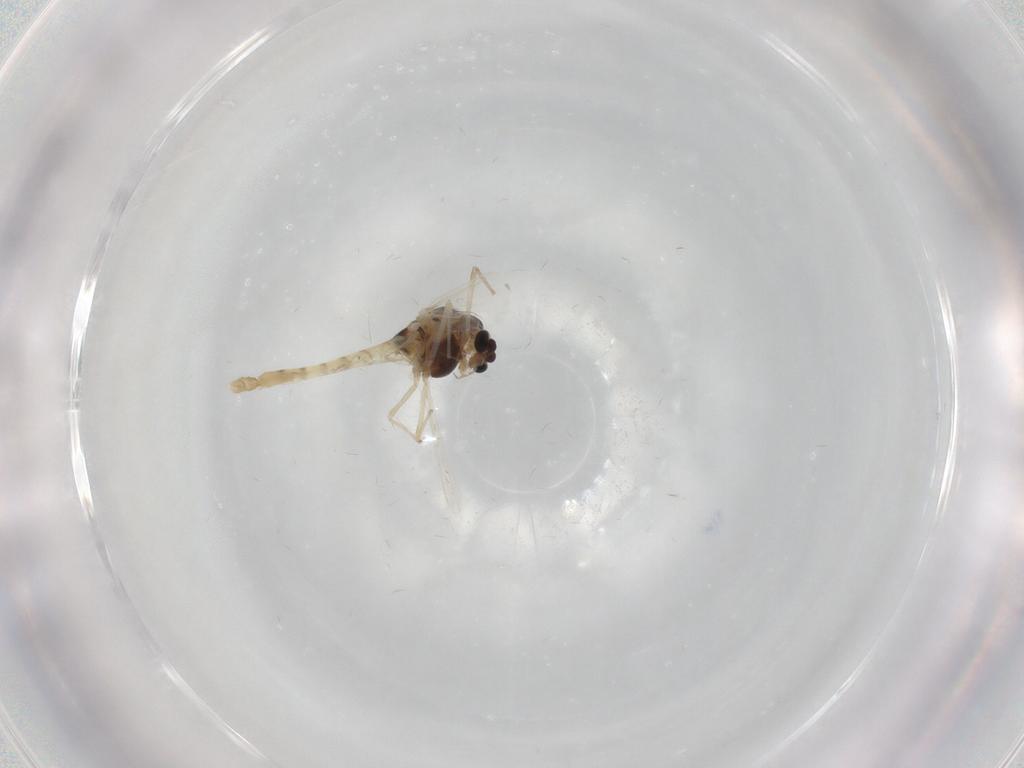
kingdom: Animalia
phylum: Arthropoda
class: Insecta
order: Diptera
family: Chironomidae
